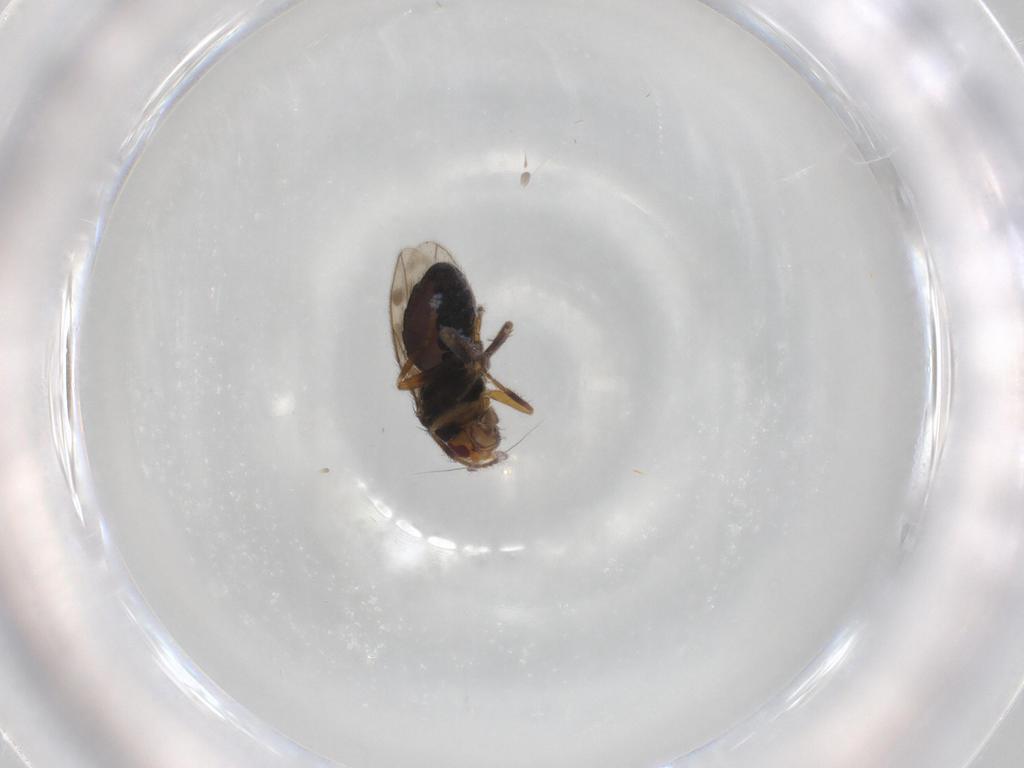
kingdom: Animalia
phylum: Arthropoda
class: Insecta
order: Diptera
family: Sphaeroceridae
